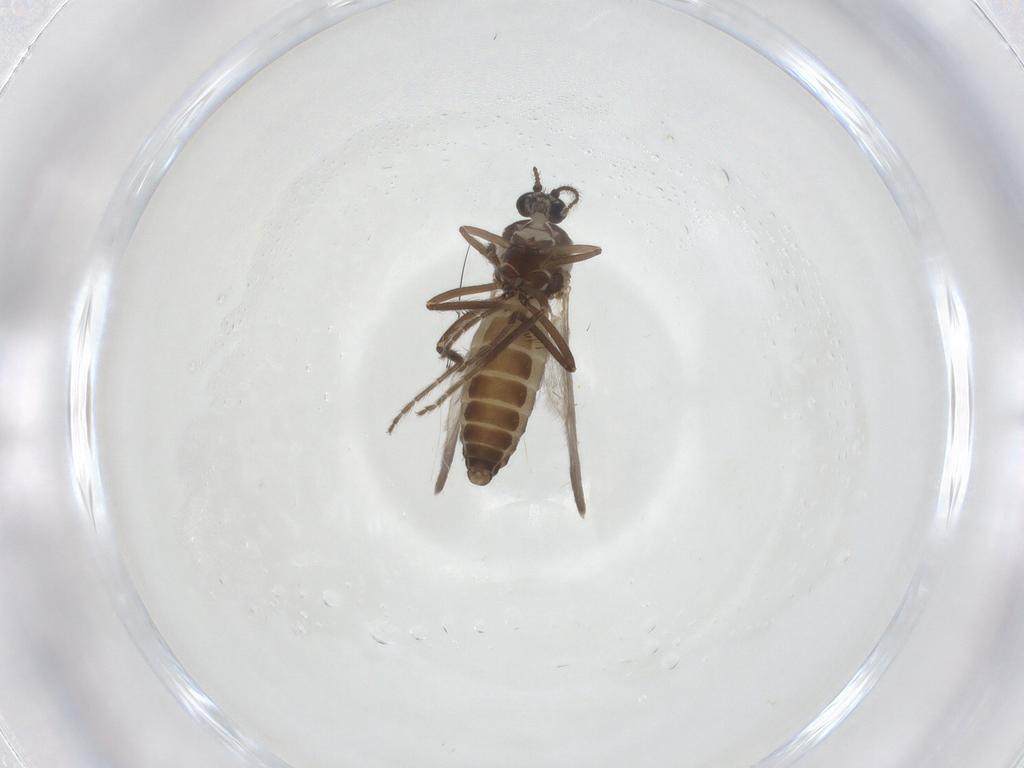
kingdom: Animalia
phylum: Arthropoda
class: Insecta
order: Diptera
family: Ceratopogonidae
